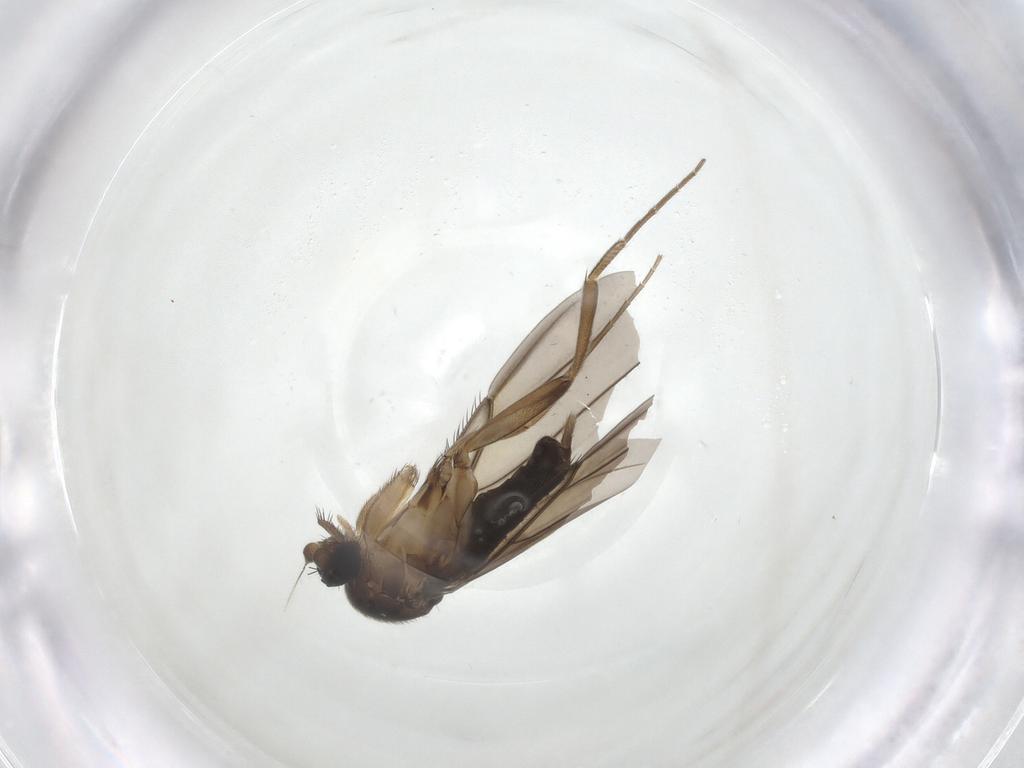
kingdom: Animalia
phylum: Arthropoda
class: Insecta
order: Diptera
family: Phoridae
